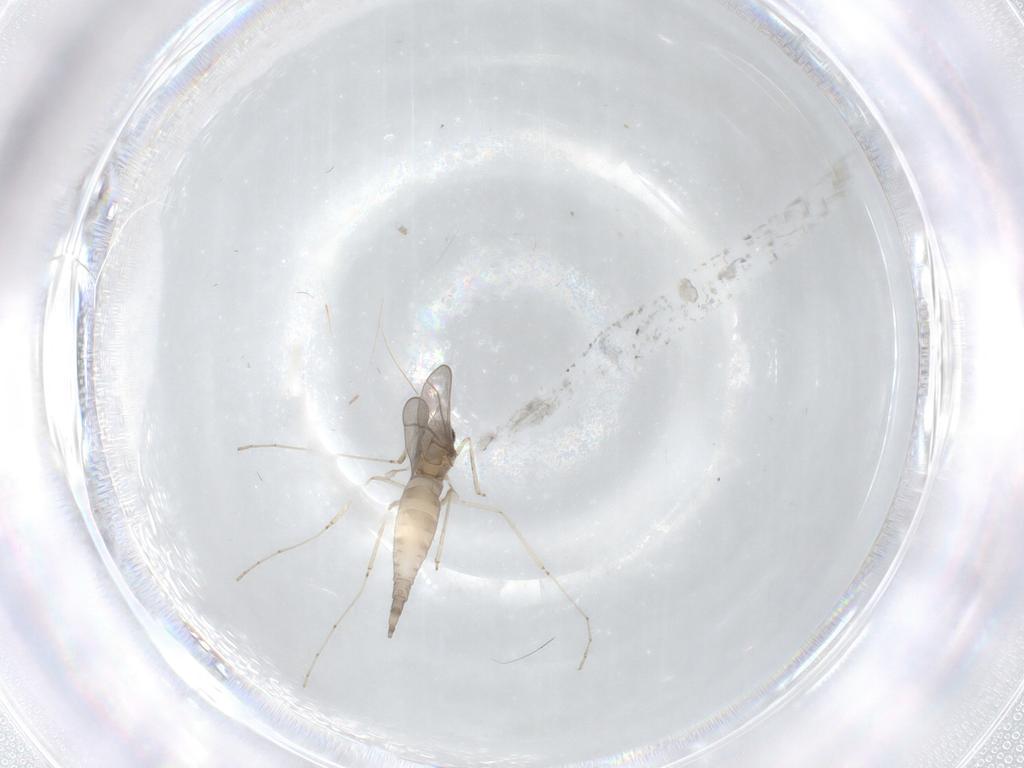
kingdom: Animalia
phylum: Arthropoda
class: Insecta
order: Diptera
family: Cecidomyiidae
